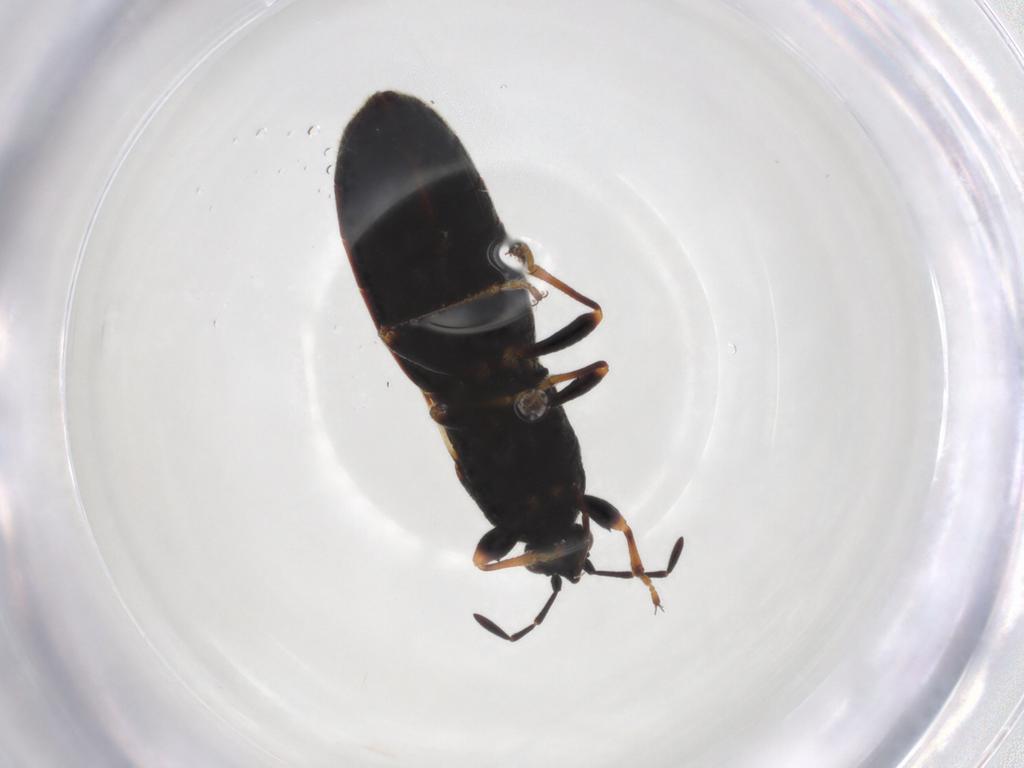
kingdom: Animalia
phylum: Arthropoda
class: Insecta
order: Hemiptera
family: Blissidae
